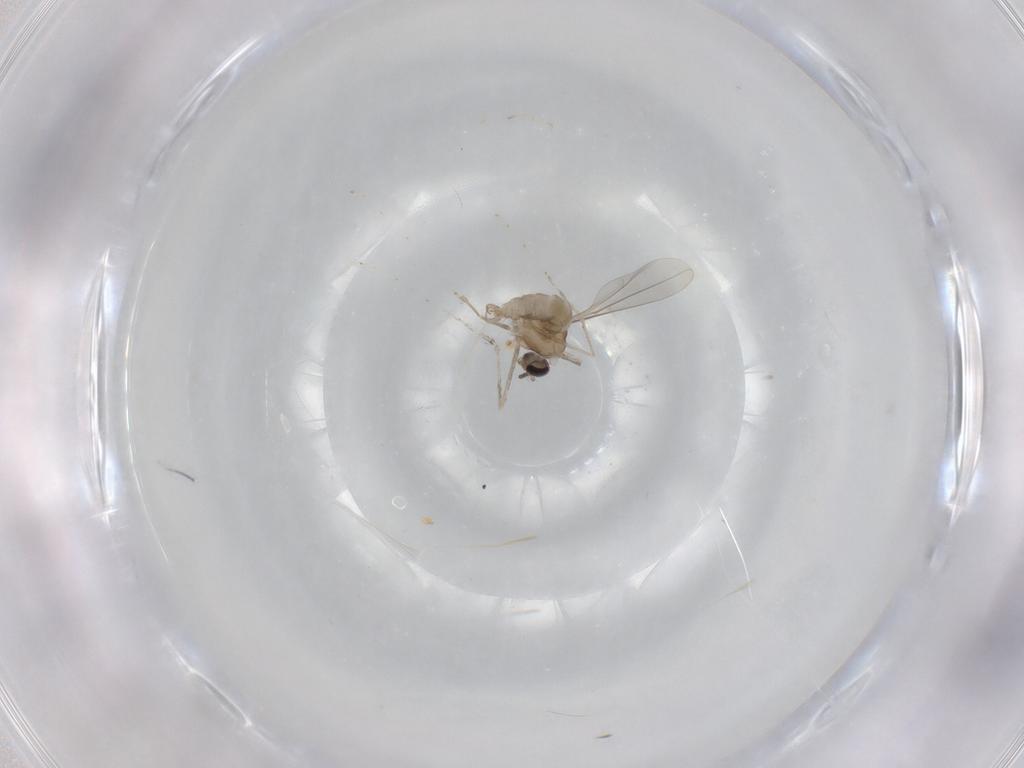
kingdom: Animalia
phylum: Arthropoda
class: Insecta
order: Diptera
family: Cecidomyiidae
